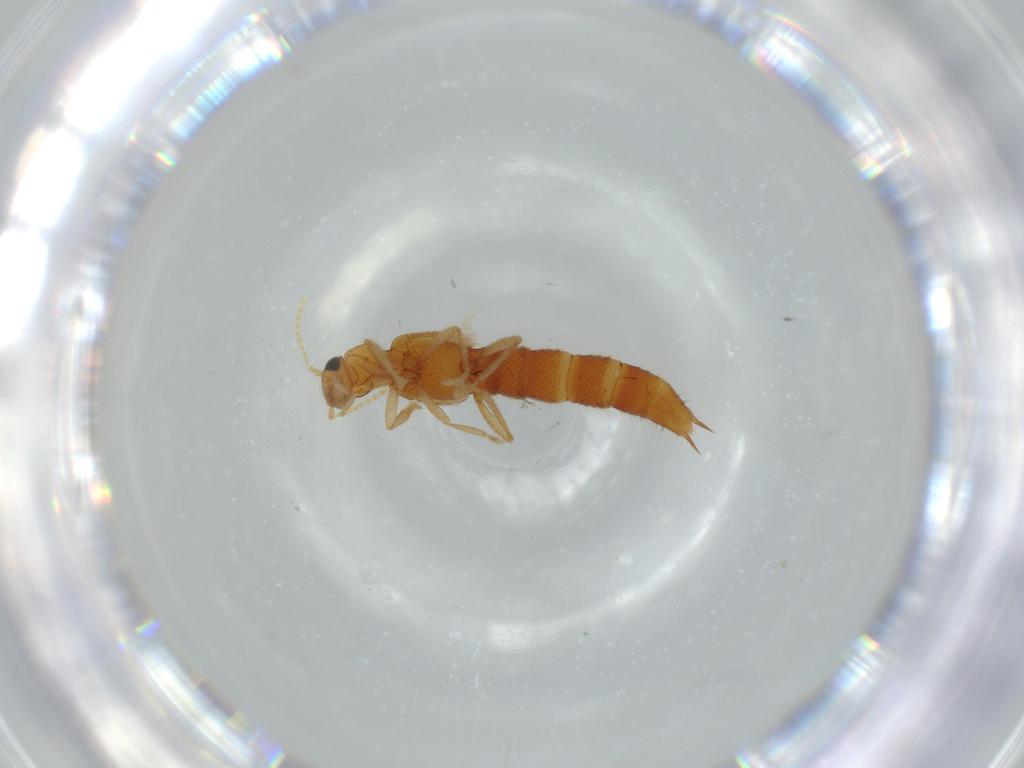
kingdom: Animalia
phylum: Arthropoda
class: Insecta
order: Coleoptera
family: Staphylinidae
